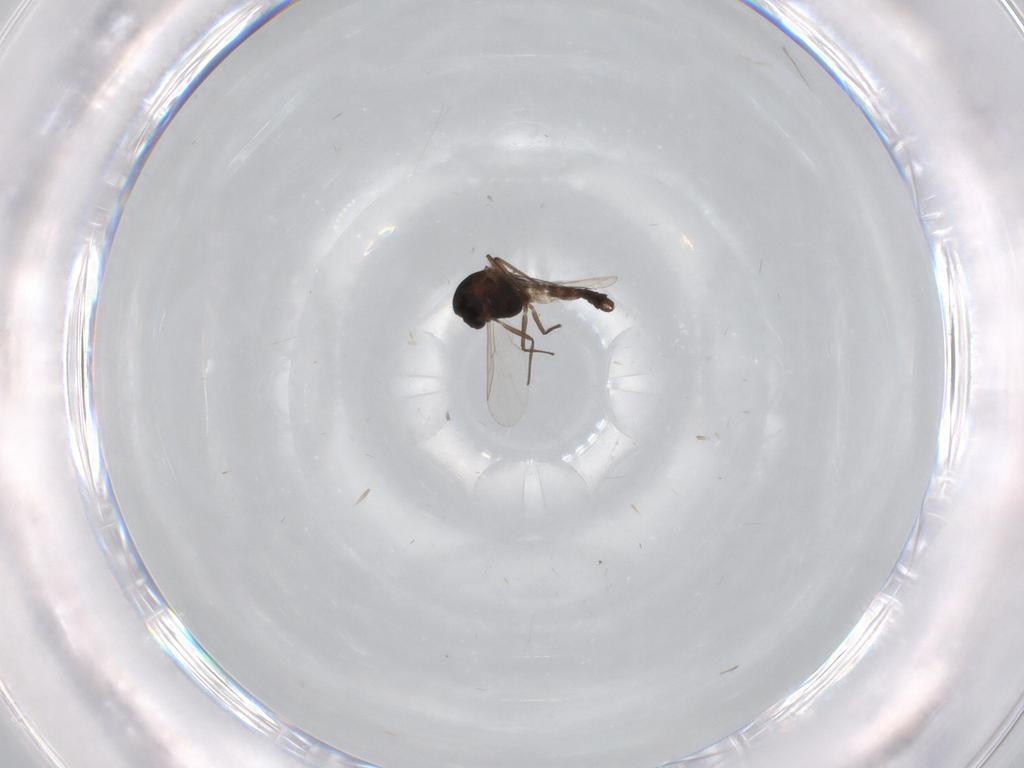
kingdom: Animalia
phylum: Arthropoda
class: Insecta
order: Diptera
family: Chironomidae
